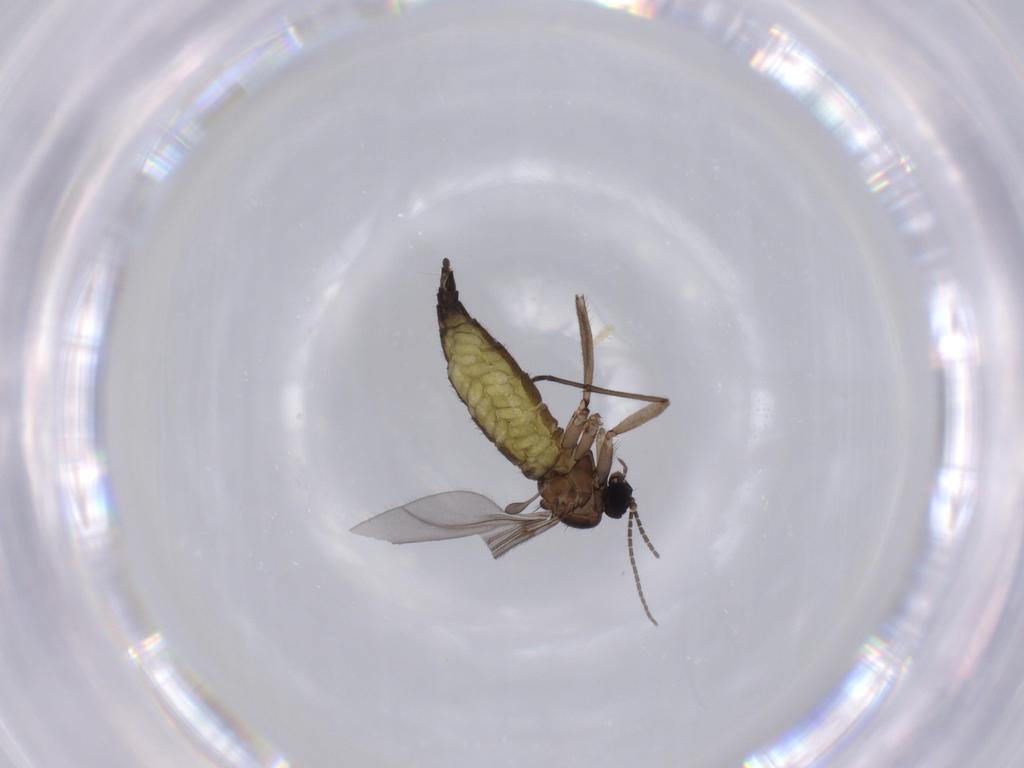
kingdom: Animalia
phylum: Arthropoda
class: Insecta
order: Diptera
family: Sciaridae
